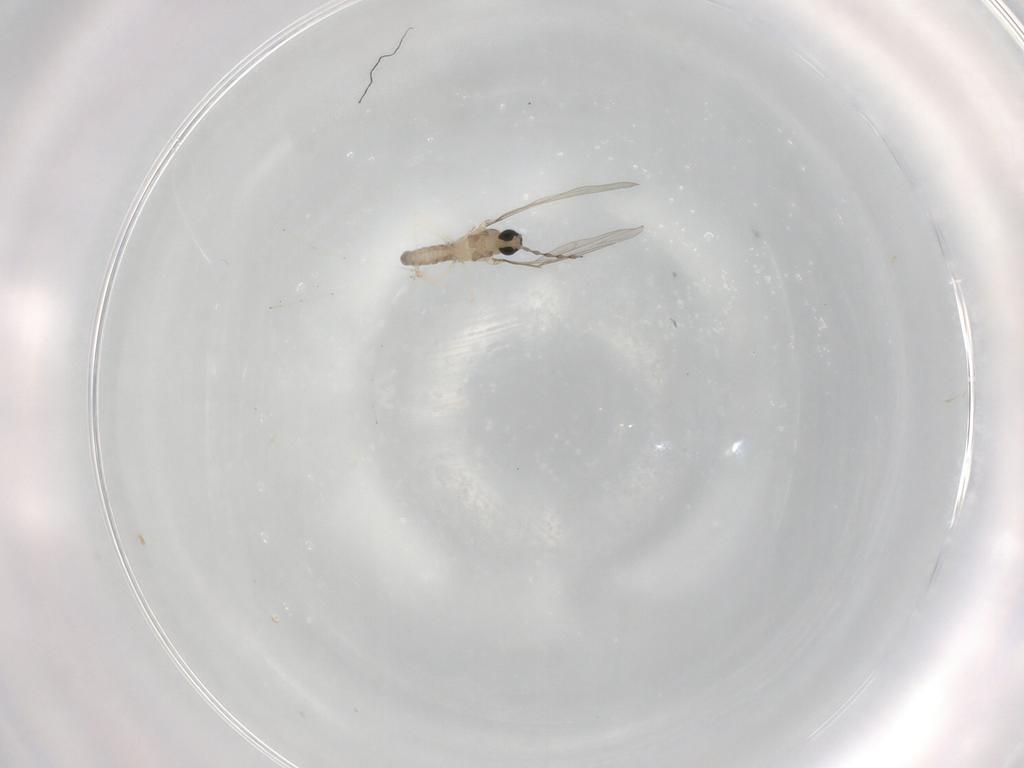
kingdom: Animalia
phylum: Arthropoda
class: Insecta
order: Diptera
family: Cecidomyiidae
